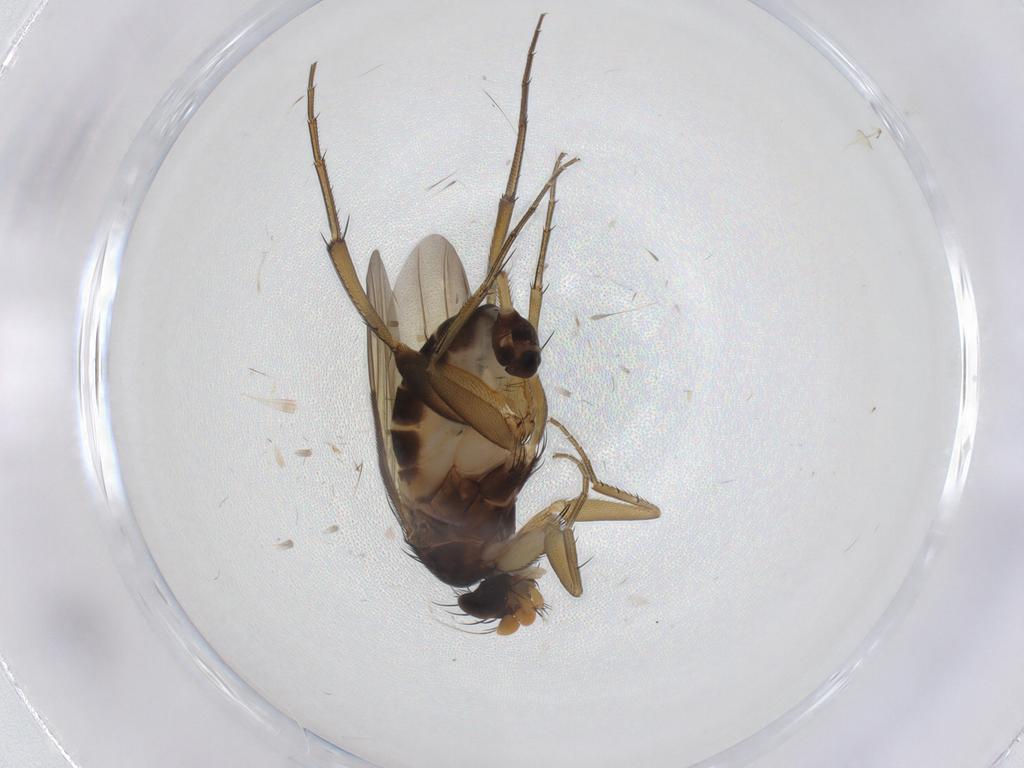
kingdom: Animalia
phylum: Arthropoda
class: Insecta
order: Diptera
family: Phoridae
